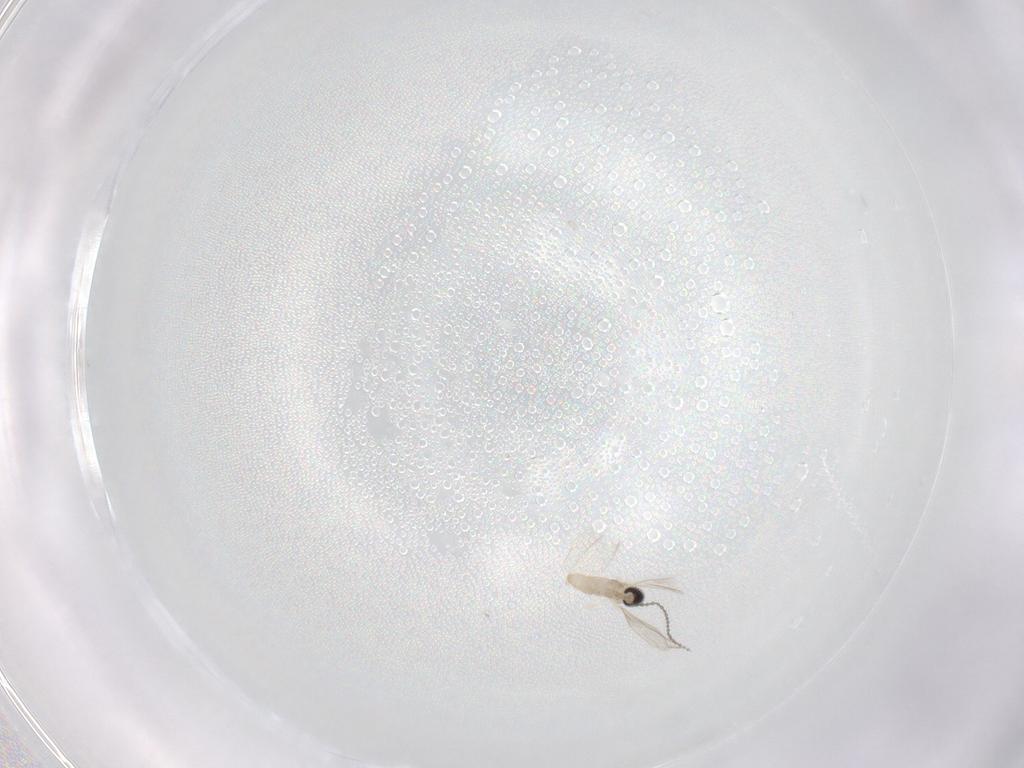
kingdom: Animalia
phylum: Arthropoda
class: Insecta
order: Diptera
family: Cecidomyiidae
